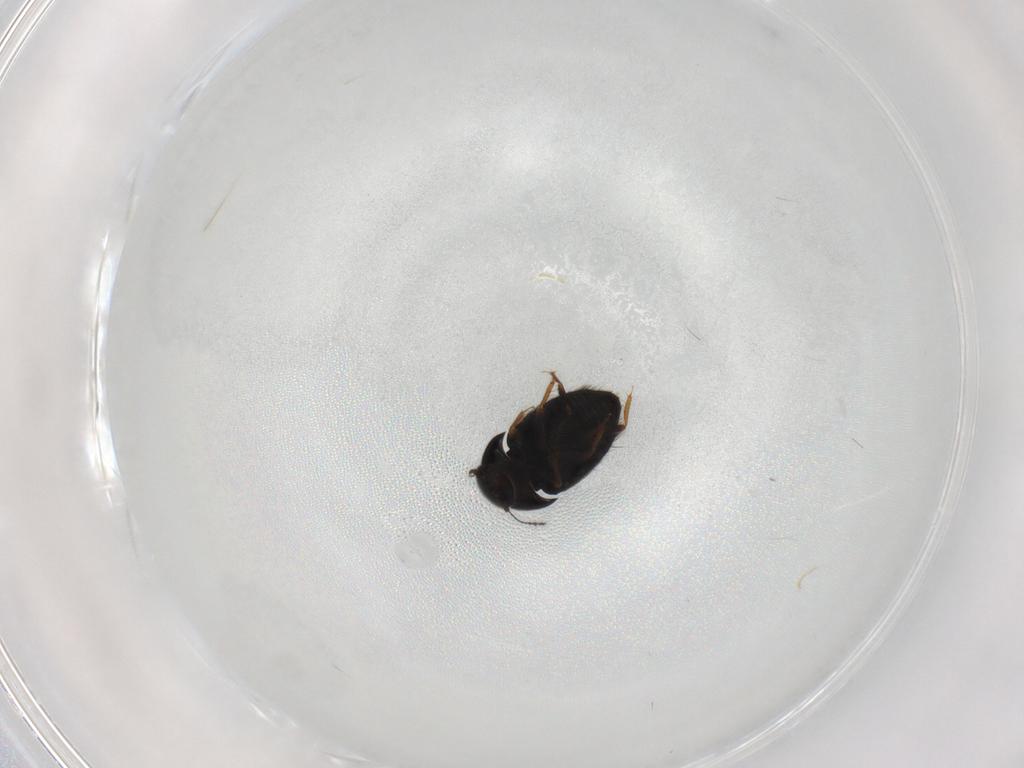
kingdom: Animalia
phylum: Arthropoda
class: Insecta
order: Coleoptera
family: Ptiliidae
